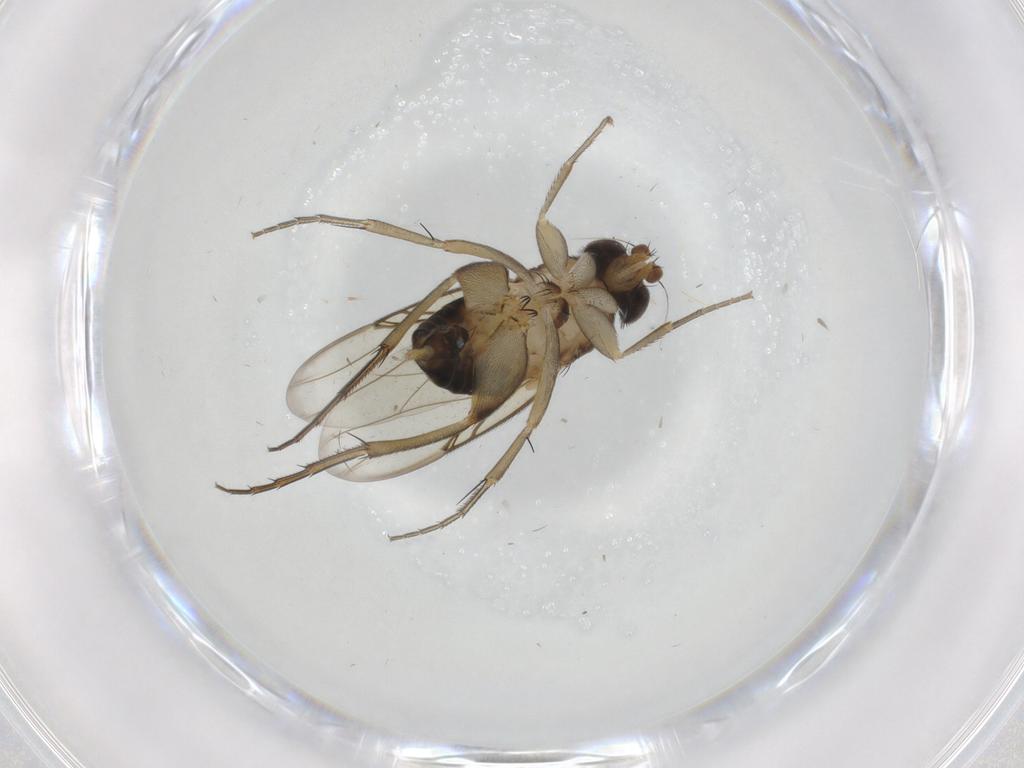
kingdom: Animalia
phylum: Arthropoda
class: Insecta
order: Diptera
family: Phoridae
